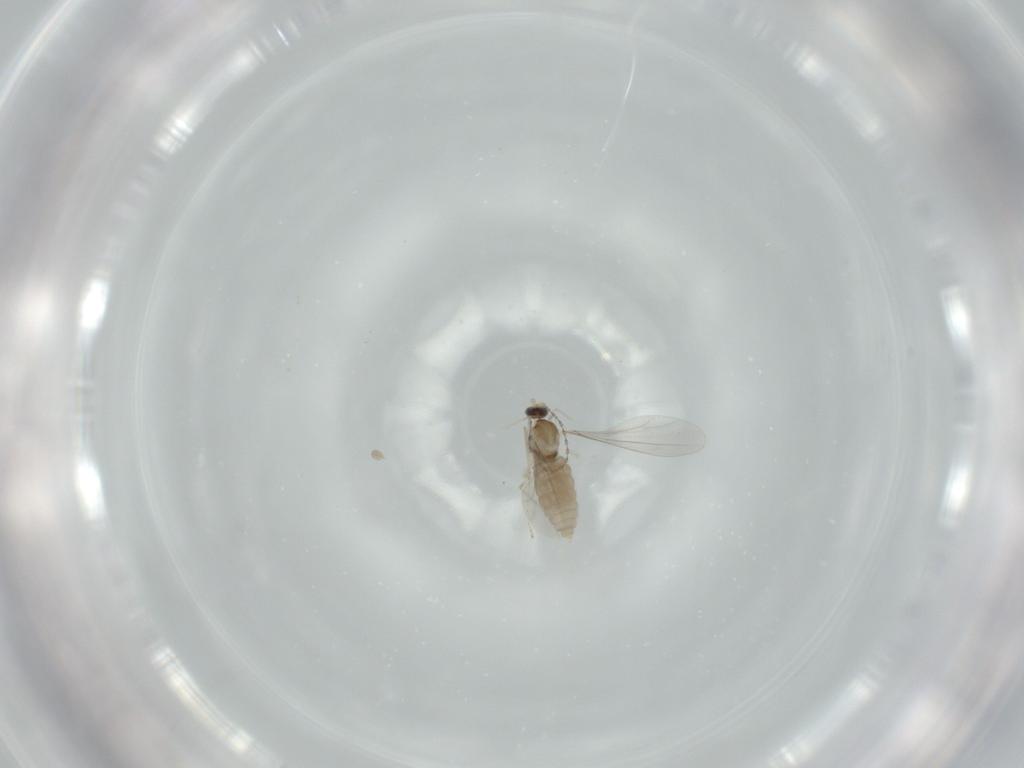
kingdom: Animalia
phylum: Arthropoda
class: Insecta
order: Diptera
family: Cecidomyiidae
